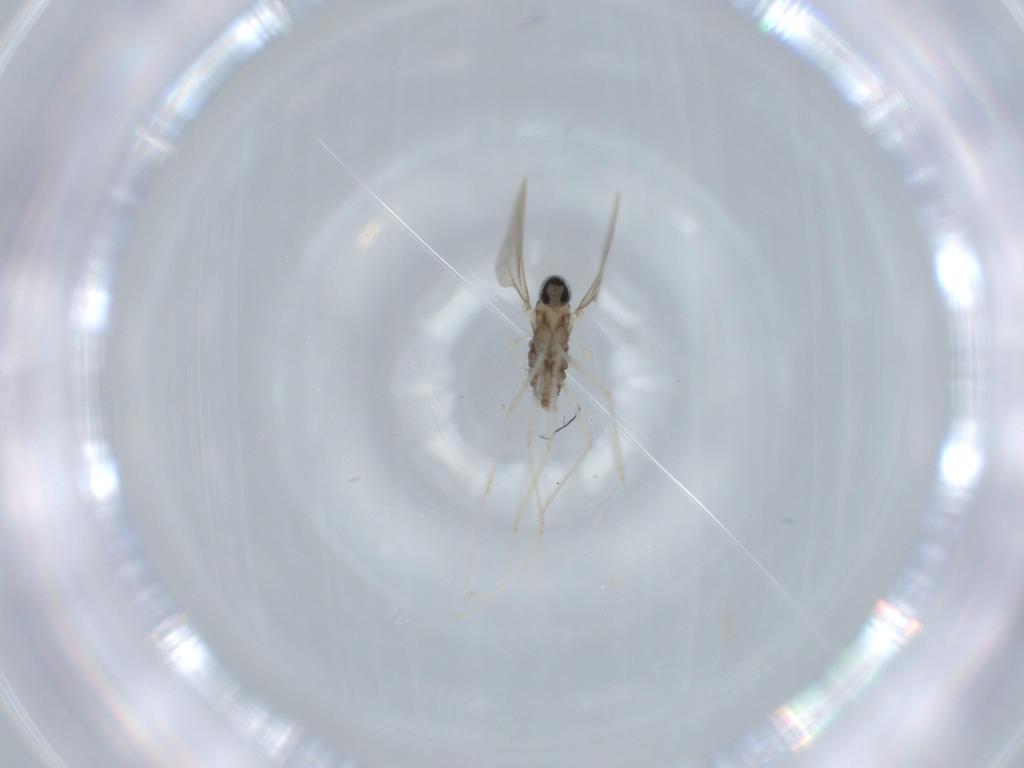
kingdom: Animalia
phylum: Arthropoda
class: Insecta
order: Diptera
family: Cecidomyiidae
